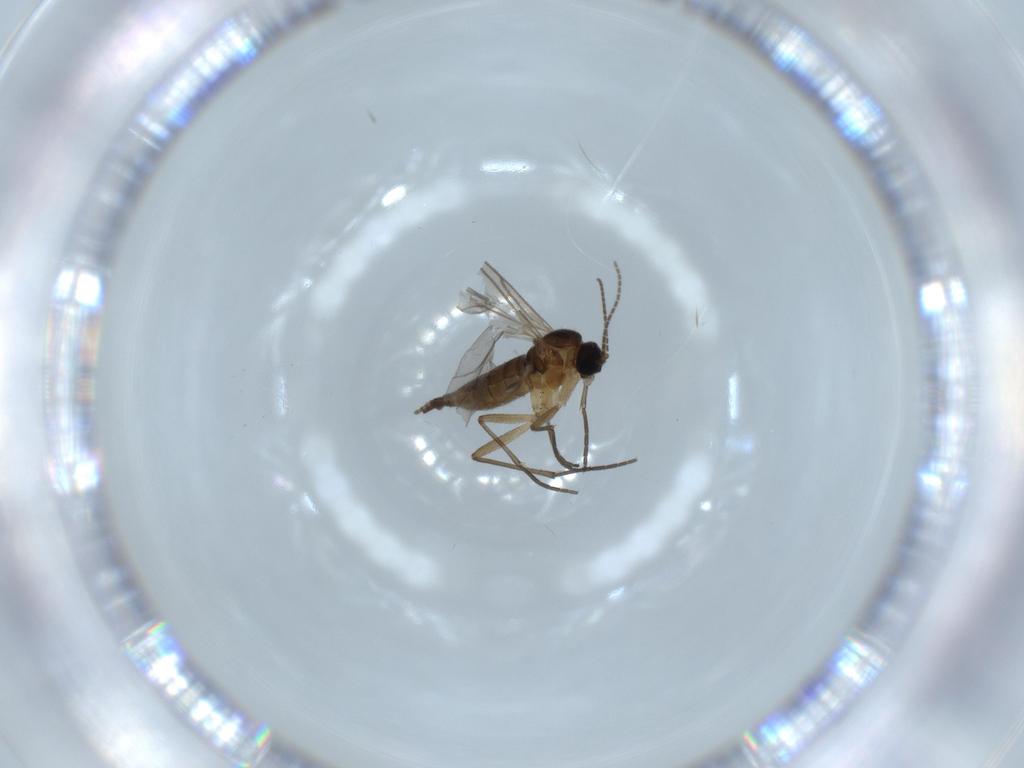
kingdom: Animalia
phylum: Arthropoda
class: Insecta
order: Diptera
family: Sciaridae
